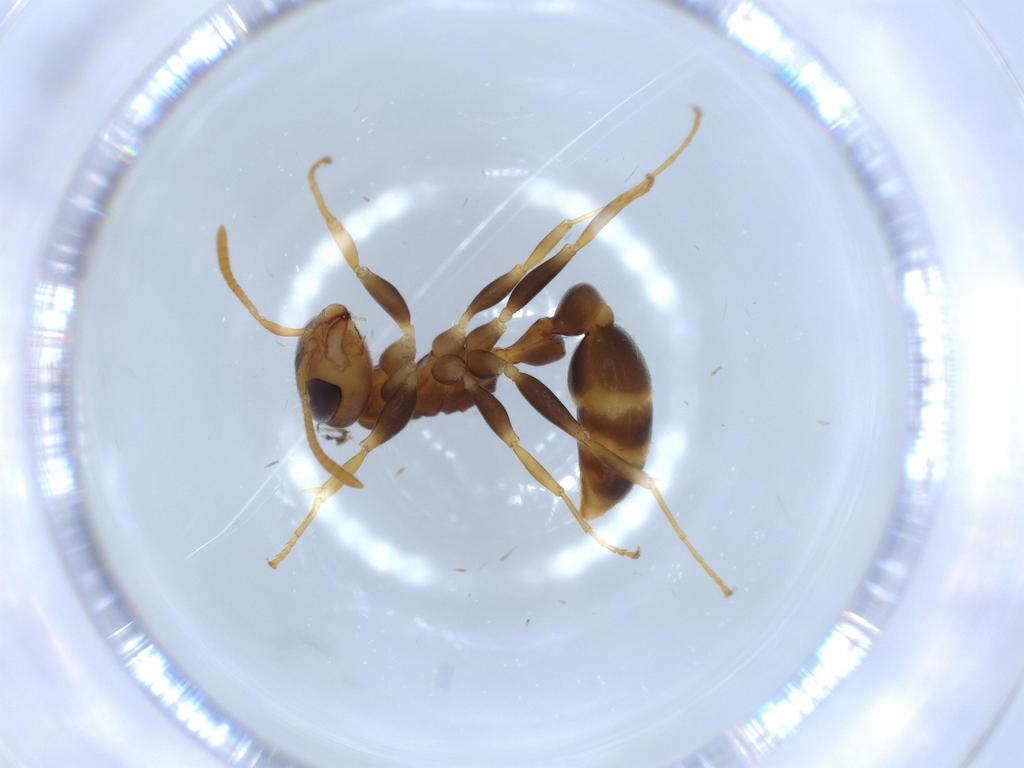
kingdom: Animalia
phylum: Arthropoda
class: Insecta
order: Hymenoptera
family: Formicidae
